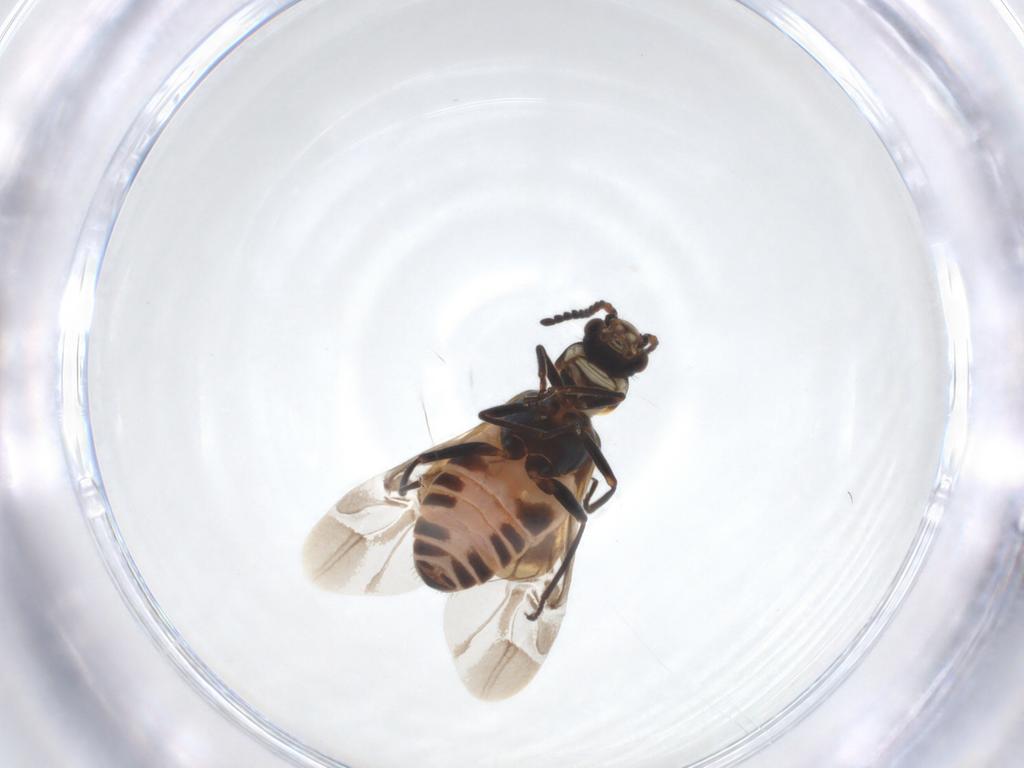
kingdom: Animalia
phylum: Arthropoda
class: Insecta
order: Coleoptera
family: Melyridae
